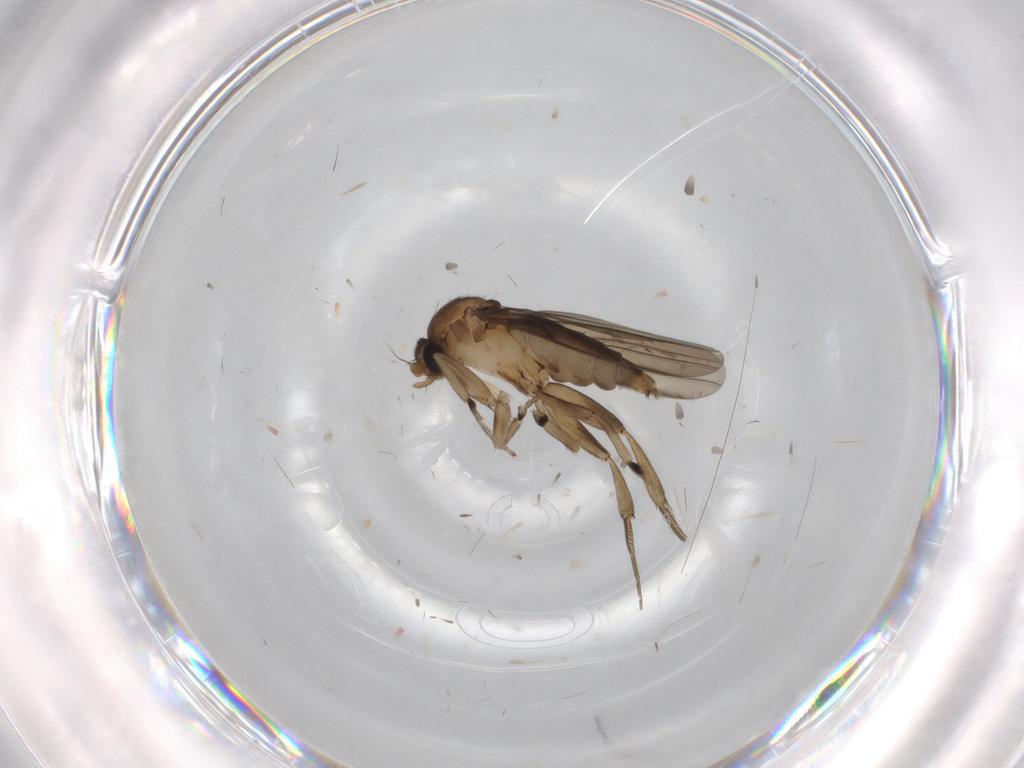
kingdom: Animalia
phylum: Arthropoda
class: Insecta
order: Diptera
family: Phoridae
